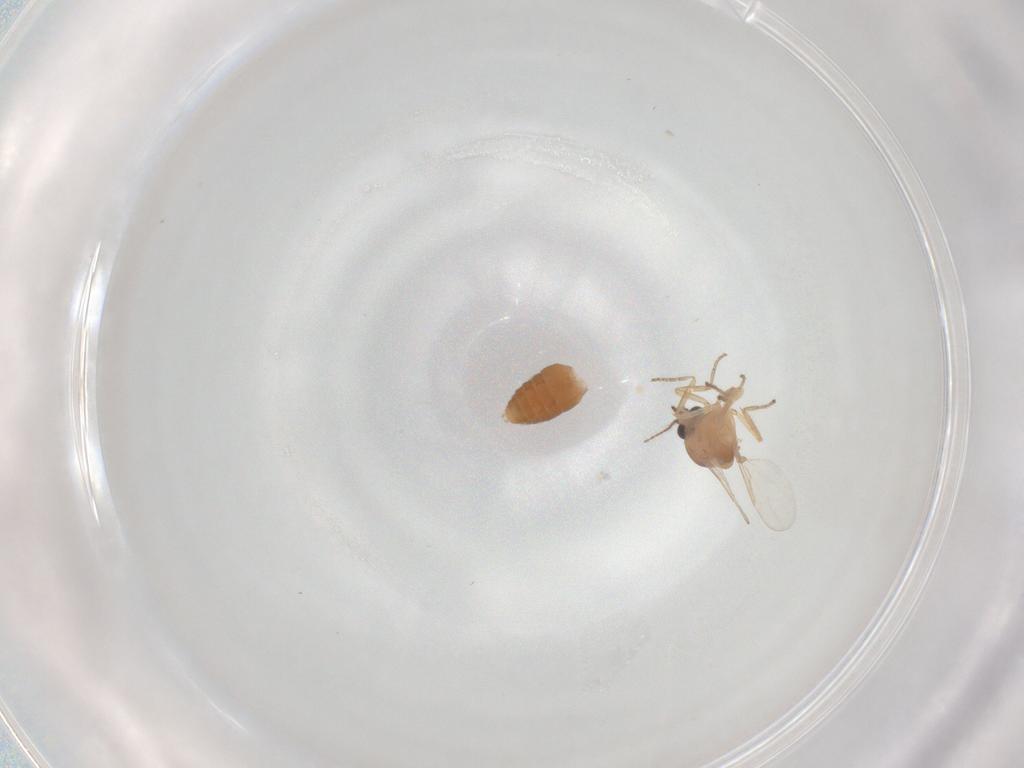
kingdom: Animalia
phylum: Arthropoda
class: Insecta
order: Diptera
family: Ceratopogonidae
